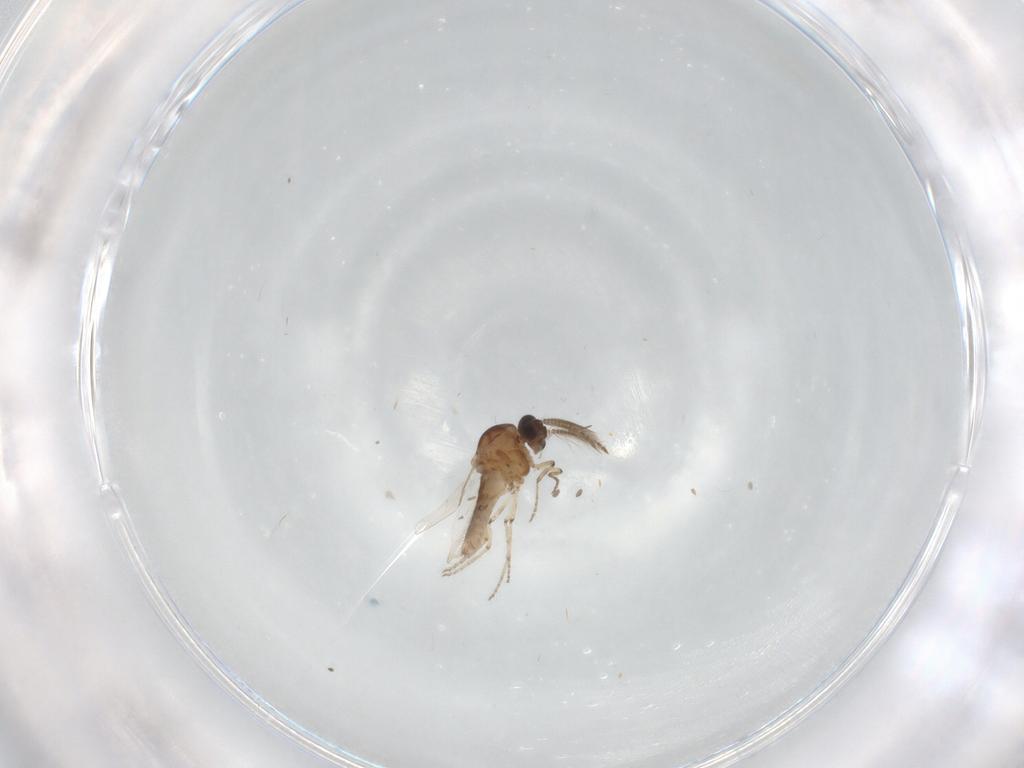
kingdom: Animalia
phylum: Arthropoda
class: Insecta
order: Diptera
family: Ceratopogonidae
